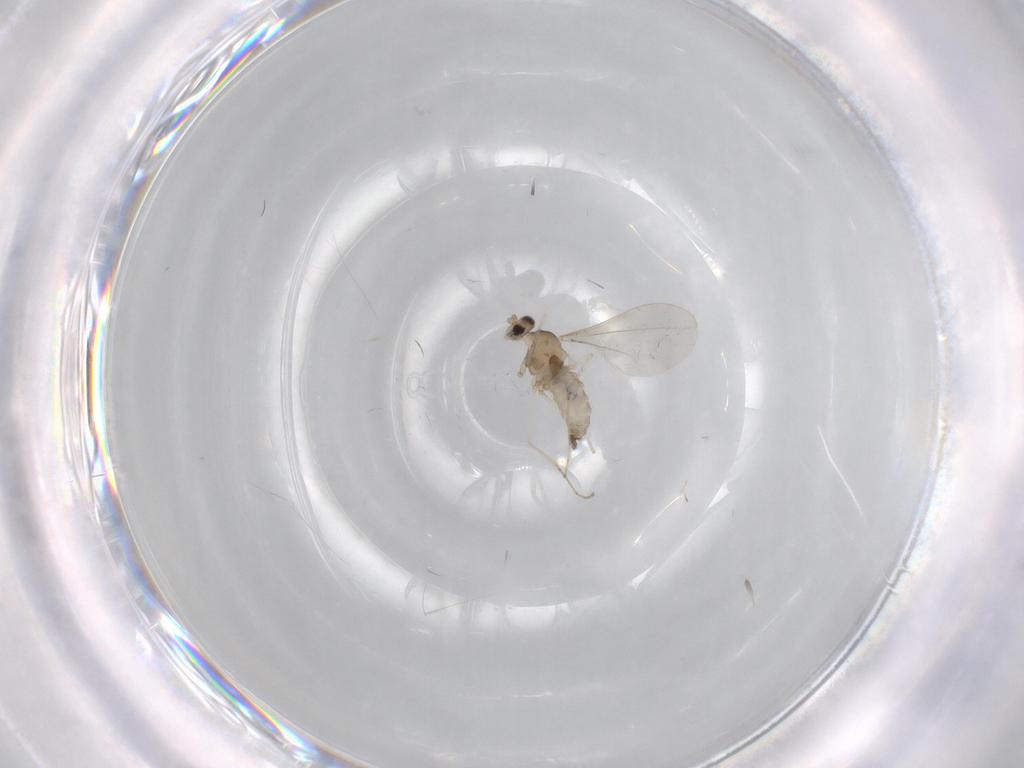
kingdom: Animalia
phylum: Arthropoda
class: Insecta
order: Diptera
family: Cecidomyiidae
